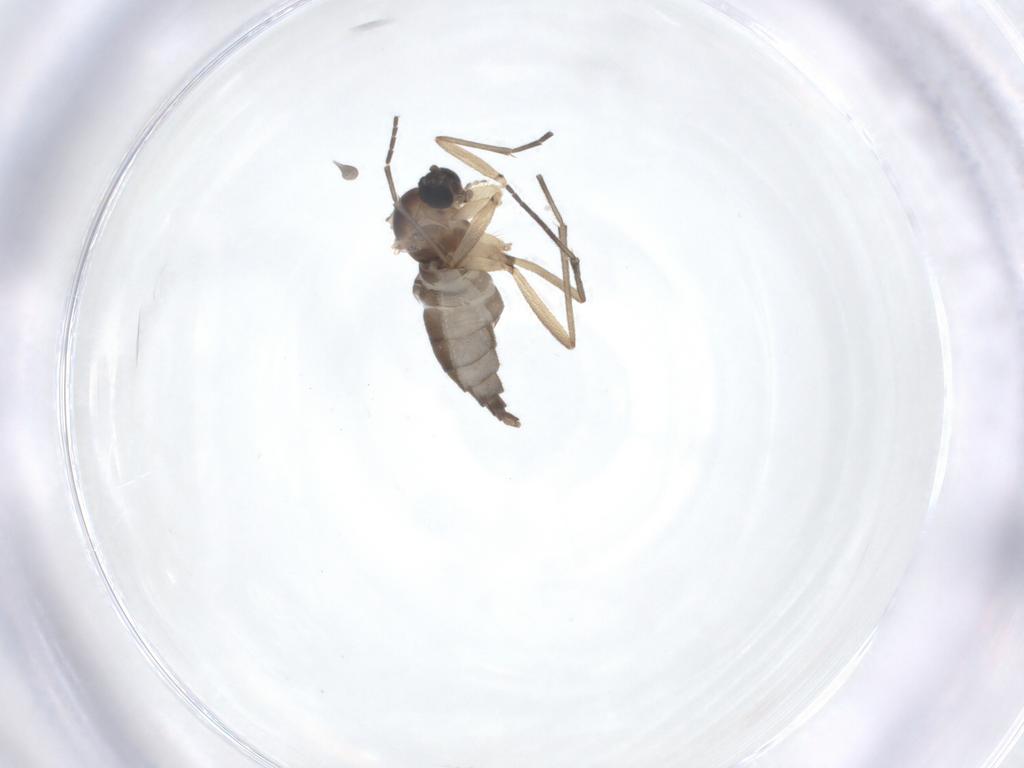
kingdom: Animalia
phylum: Arthropoda
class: Insecta
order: Diptera
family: Sciaridae
